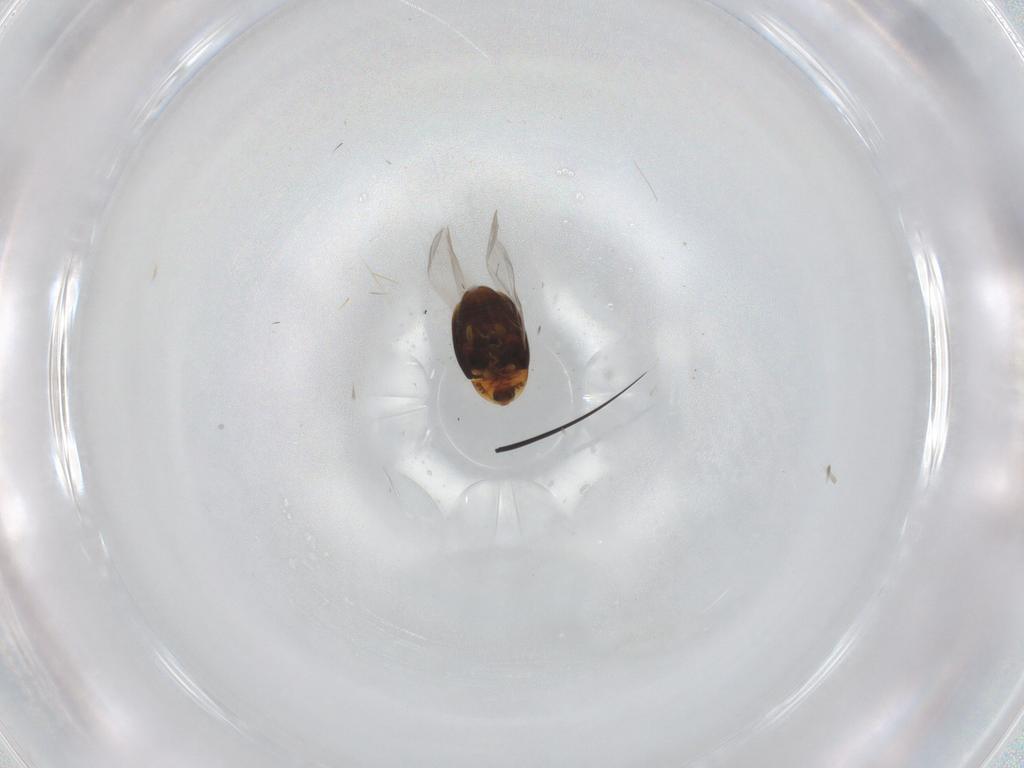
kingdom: Animalia
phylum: Arthropoda
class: Insecta
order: Coleoptera
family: Corylophidae
